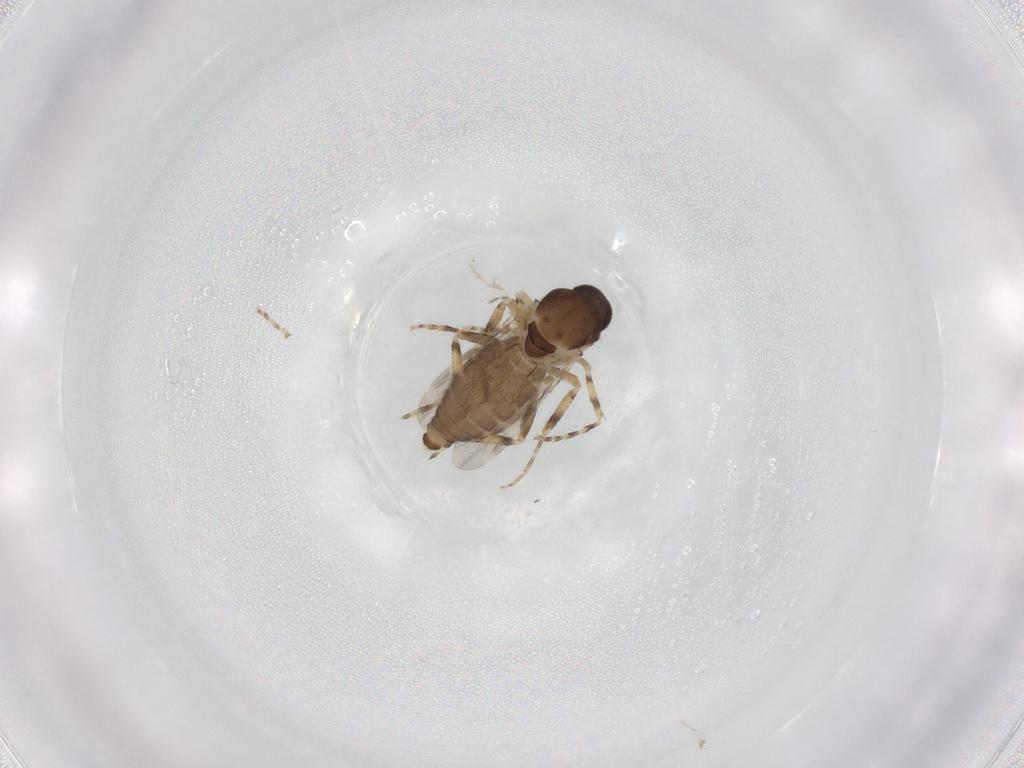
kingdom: Animalia
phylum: Arthropoda
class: Insecta
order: Diptera
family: Ceratopogonidae
